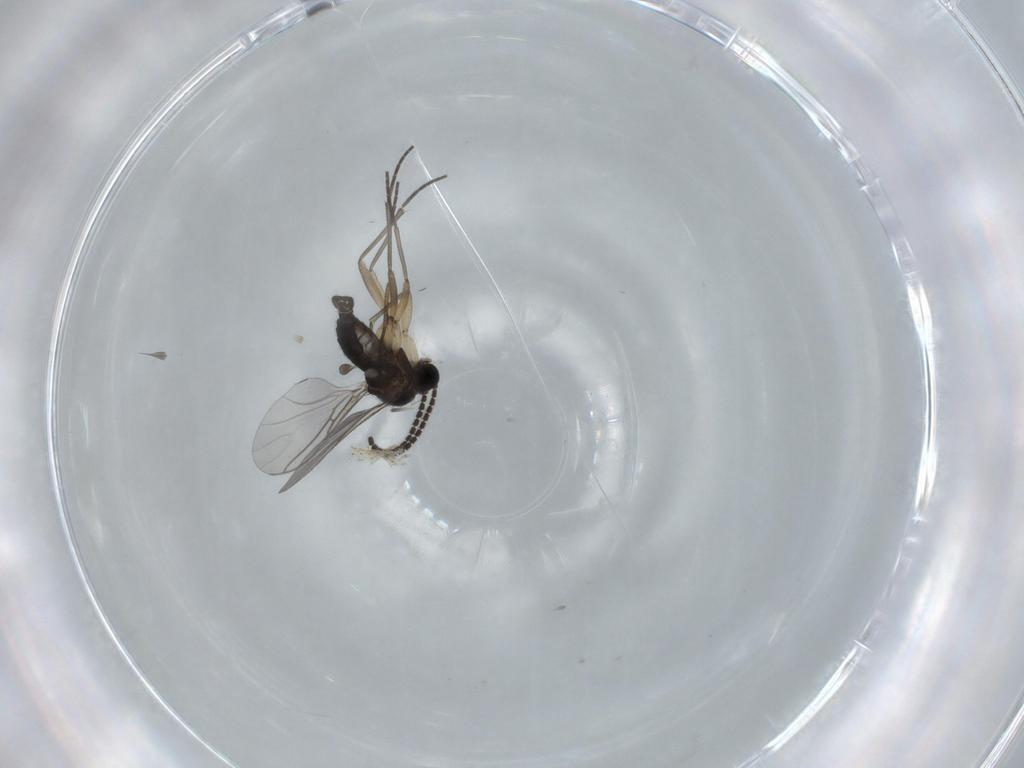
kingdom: Animalia
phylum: Arthropoda
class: Insecta
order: Diptera
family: Sciaridae
